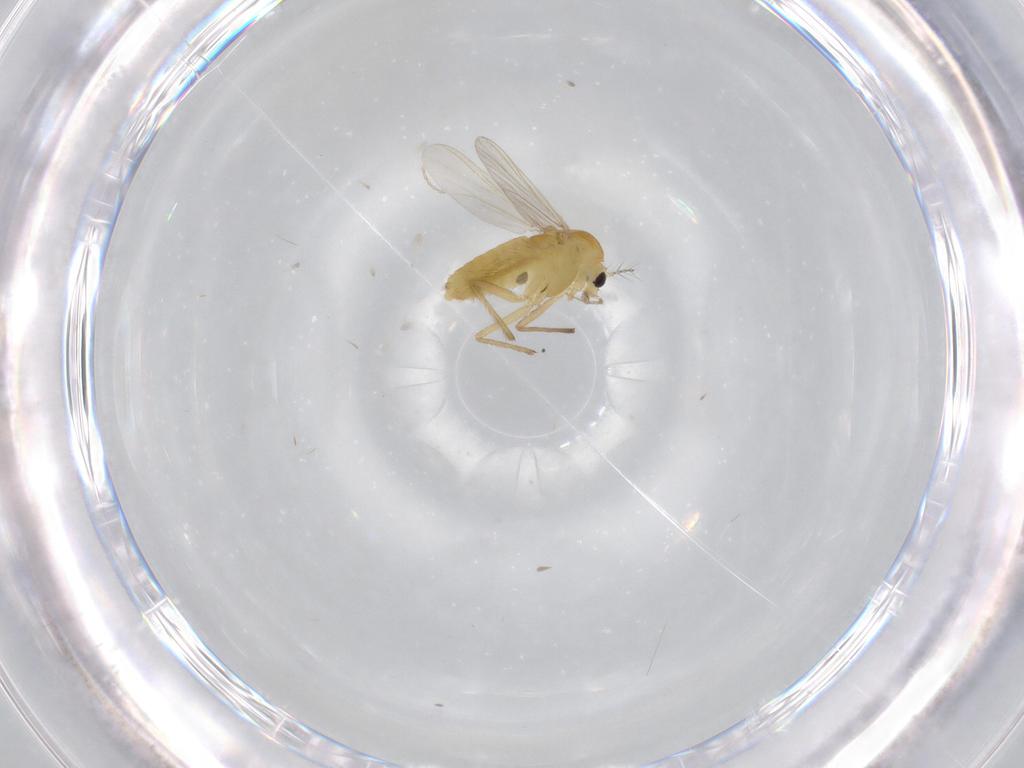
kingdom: Animalia
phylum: Arthropoda
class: Insecta
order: Diptera
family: Chironomidae
